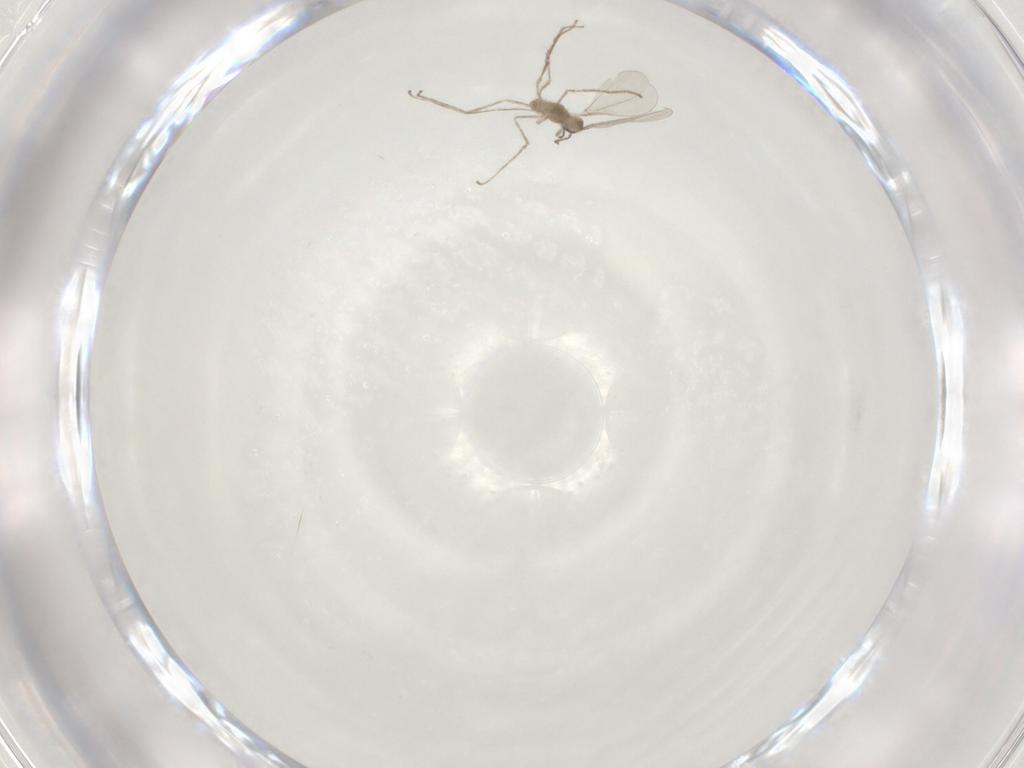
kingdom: Animalia
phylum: Arthropoda
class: Insecta
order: Diptera
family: Cecidomyiidae
